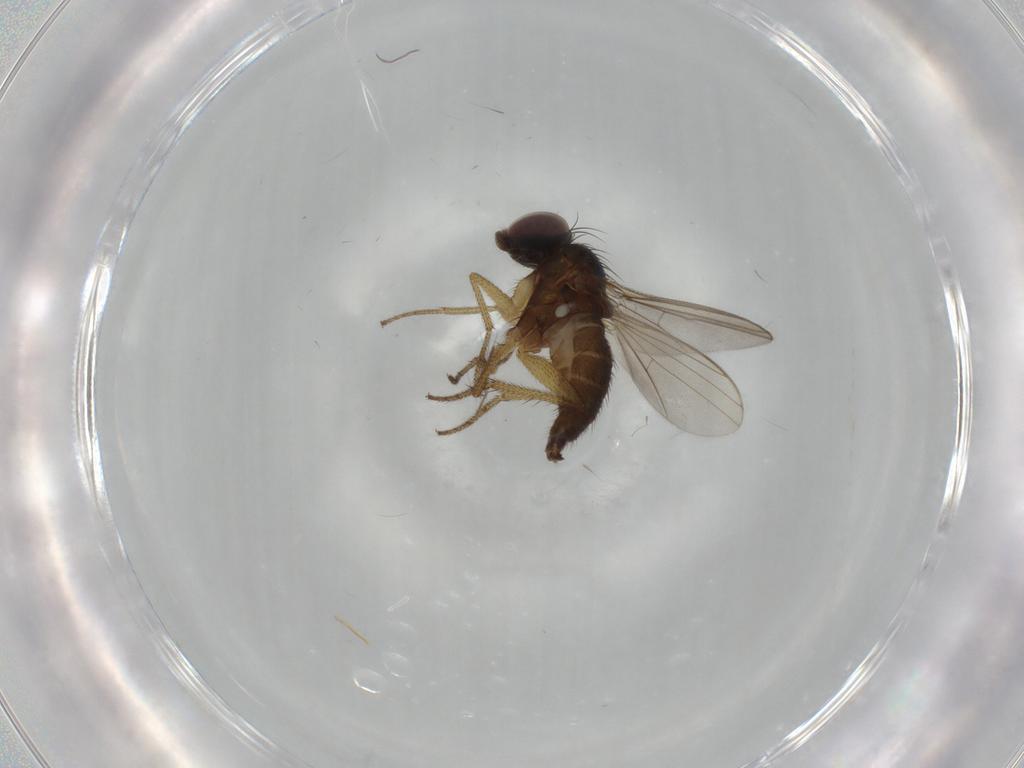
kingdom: Animalia
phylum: Arthropoda
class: Insecta
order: Diptera
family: Dolichopodidae
